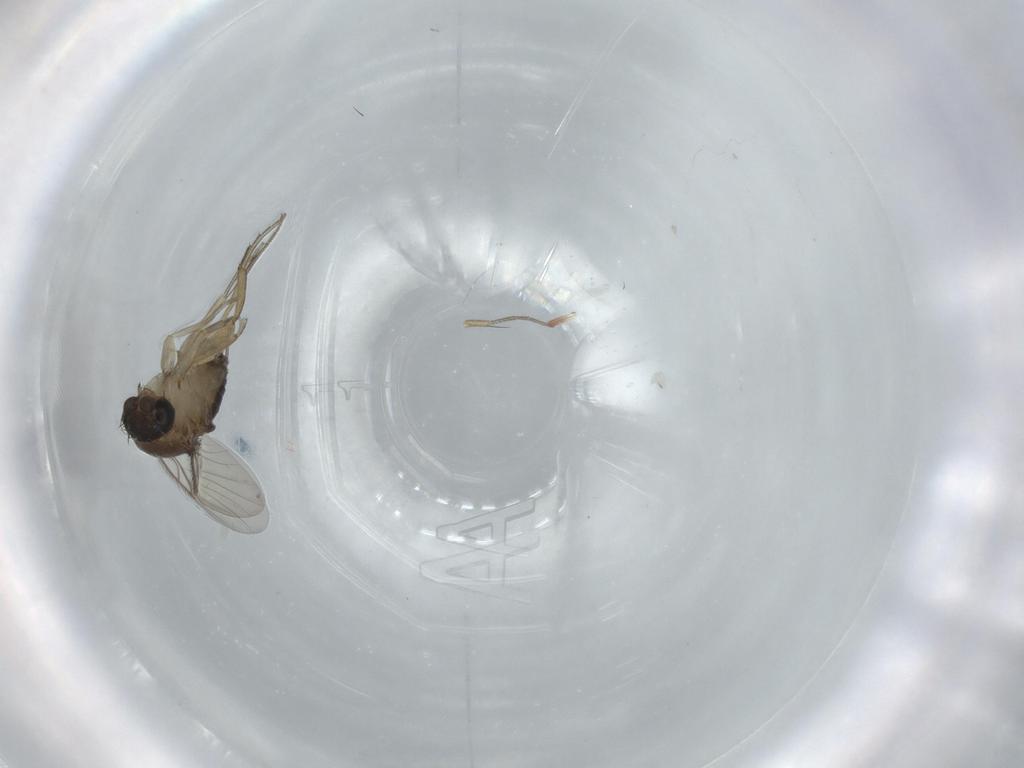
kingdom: Animalia
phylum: Arthropoda
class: Insecta
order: Diptera
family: Phoridae
